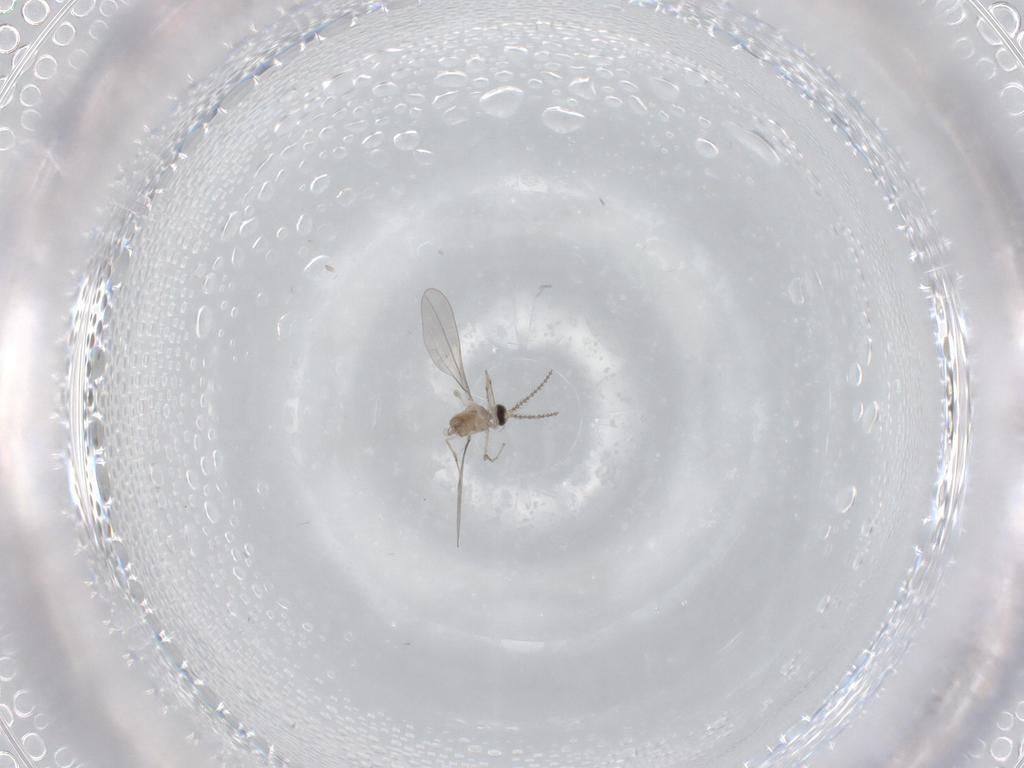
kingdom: Animalia
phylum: Arthropoda
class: Insecta
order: Diptera
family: Cecidomyiidae
